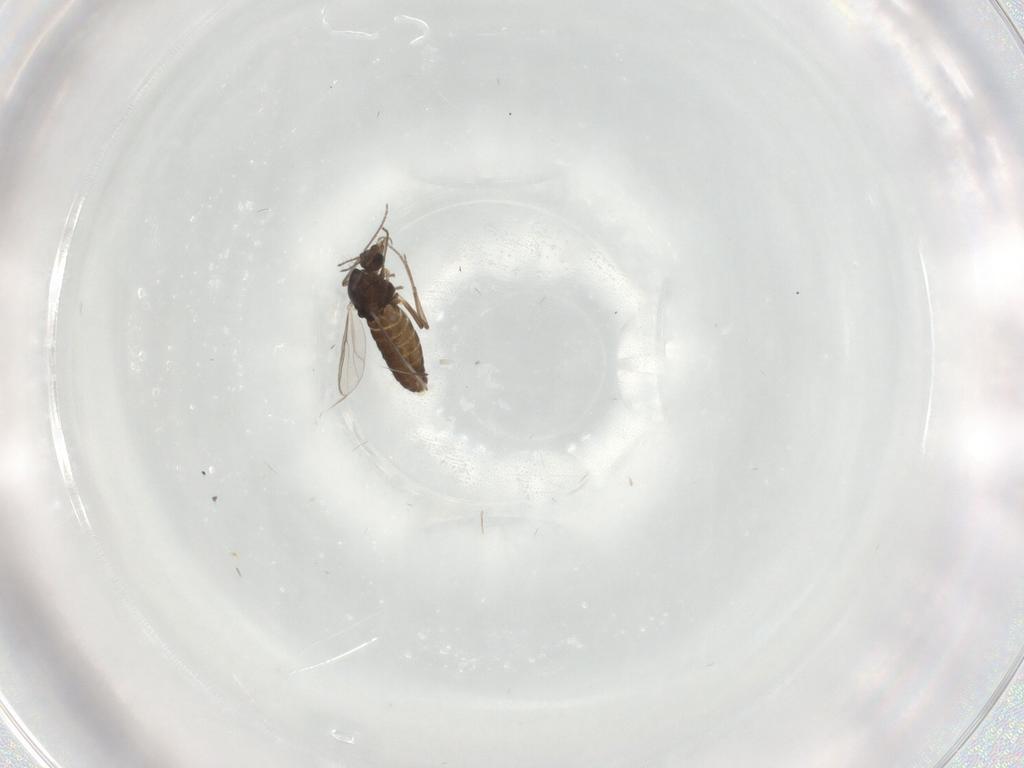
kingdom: Animalia
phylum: Arthropoda
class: Insecta
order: Diptera
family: Chironomidae
